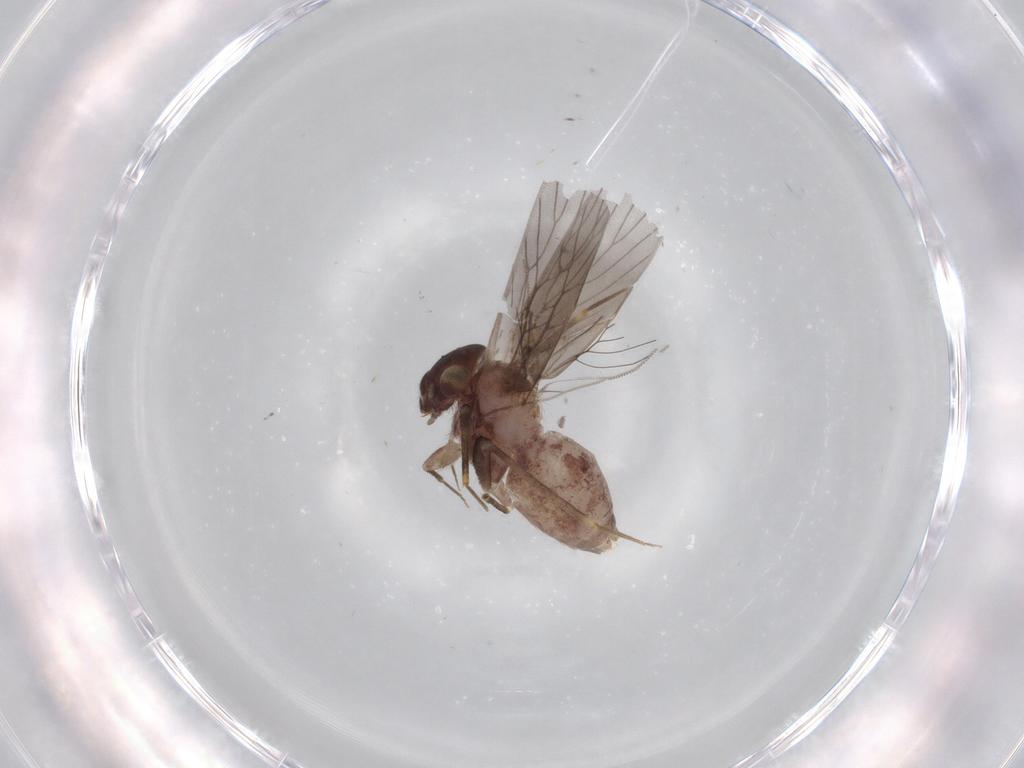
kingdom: Animalia
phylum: Arthropoda
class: Insecta
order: Psocodea
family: Lepidopsocidae
